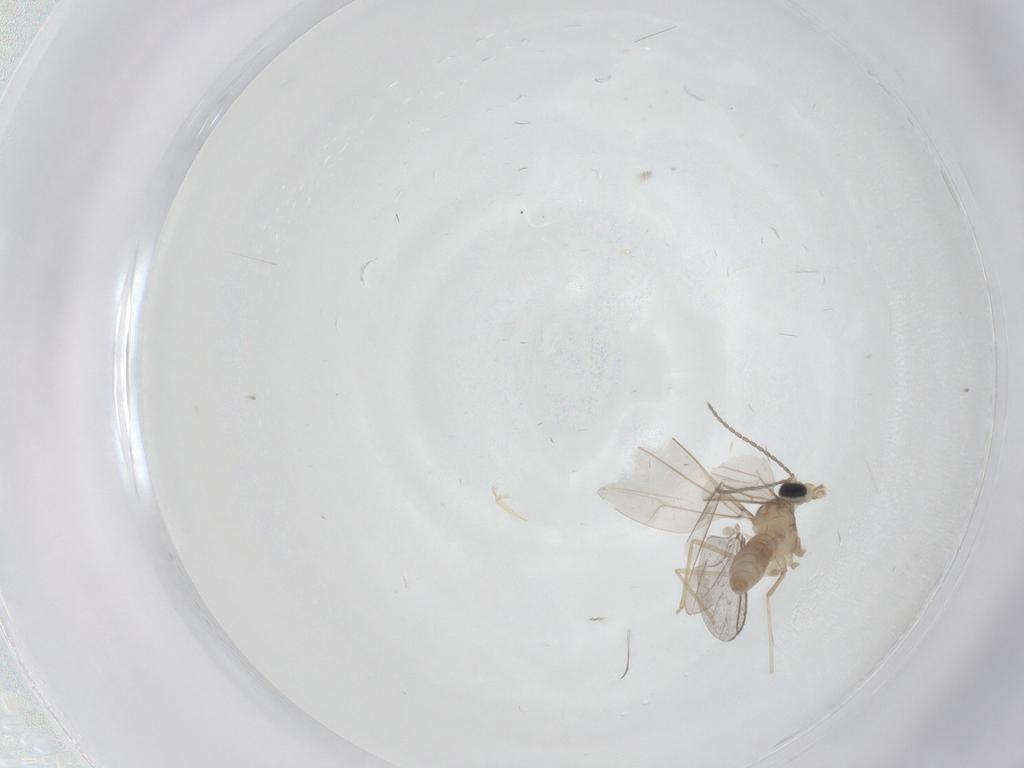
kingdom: Animalia
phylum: Arthropoda
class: Insecta
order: Diptera
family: Cecidomyiidae
